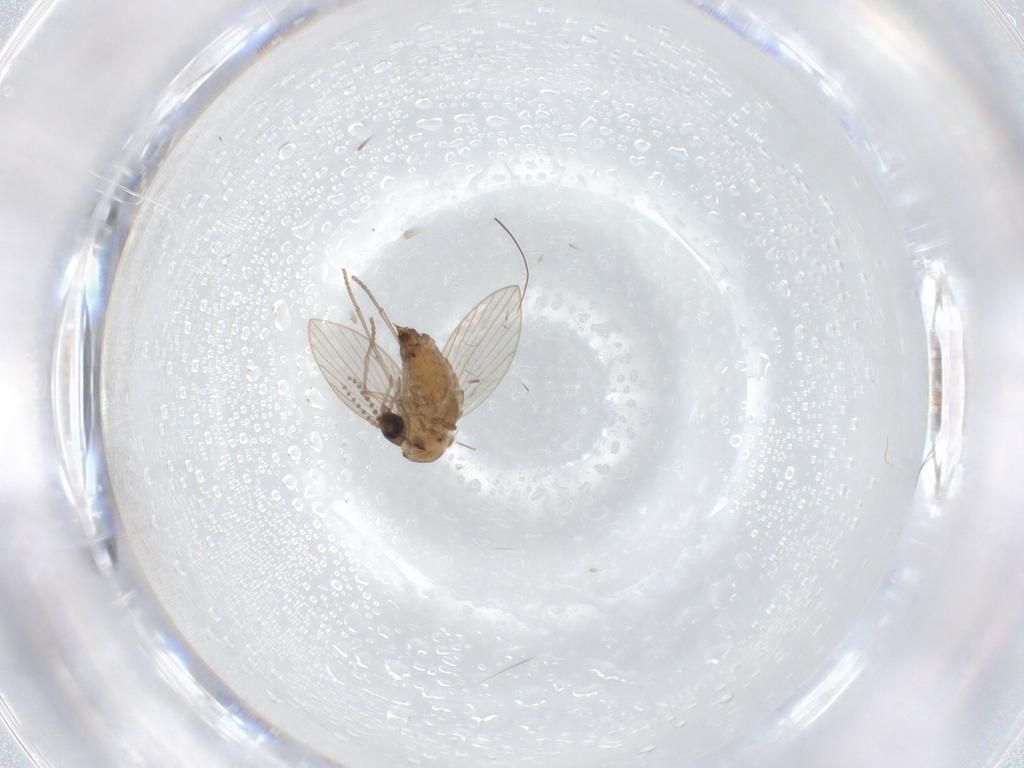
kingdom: Animalia
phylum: Arthropoda
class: Insecta
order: Diptera
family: Psychodidae
